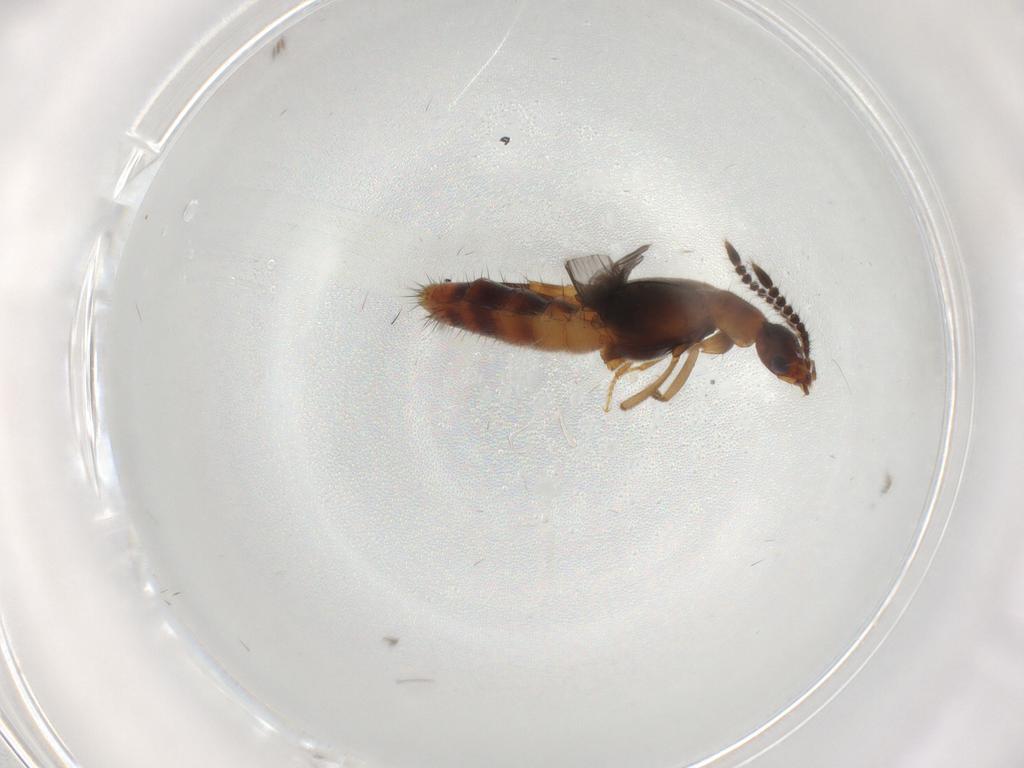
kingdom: Animalia
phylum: Arthropoda
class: Insecta
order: Coleoptera
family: Staphylinidae
